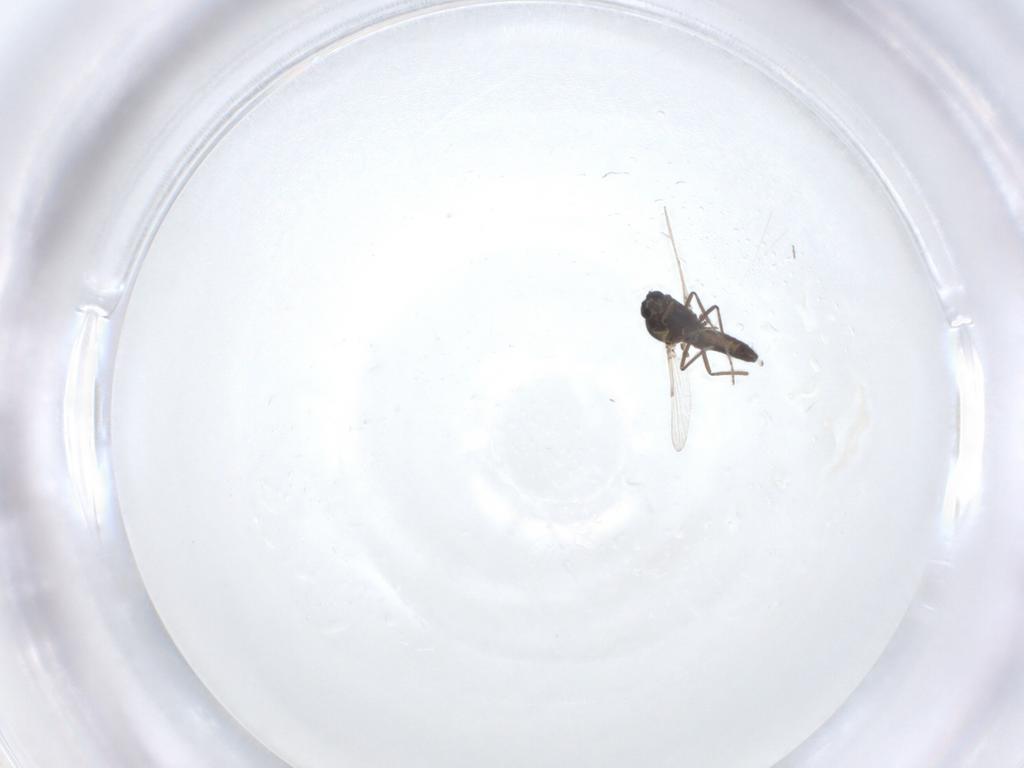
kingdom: Animalia
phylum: Arthropoda
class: Insecta
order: Diptera
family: Ceratopogonidae
